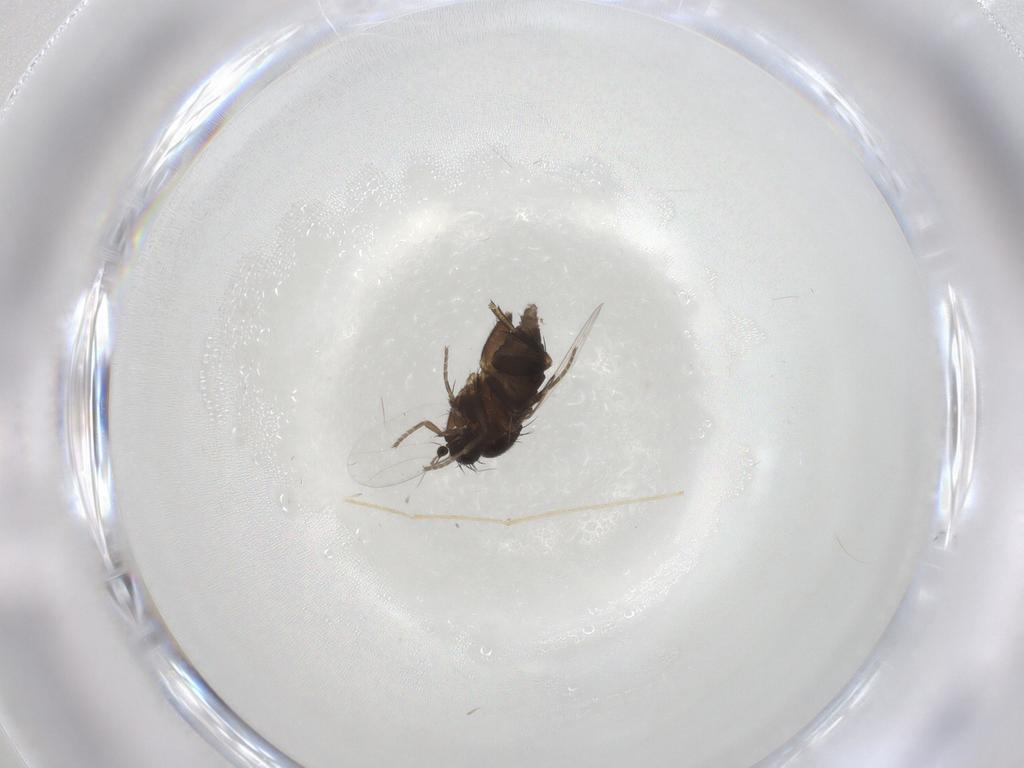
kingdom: Animalia
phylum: Arthropoda
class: Insecta
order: Diptera
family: Phoridae
